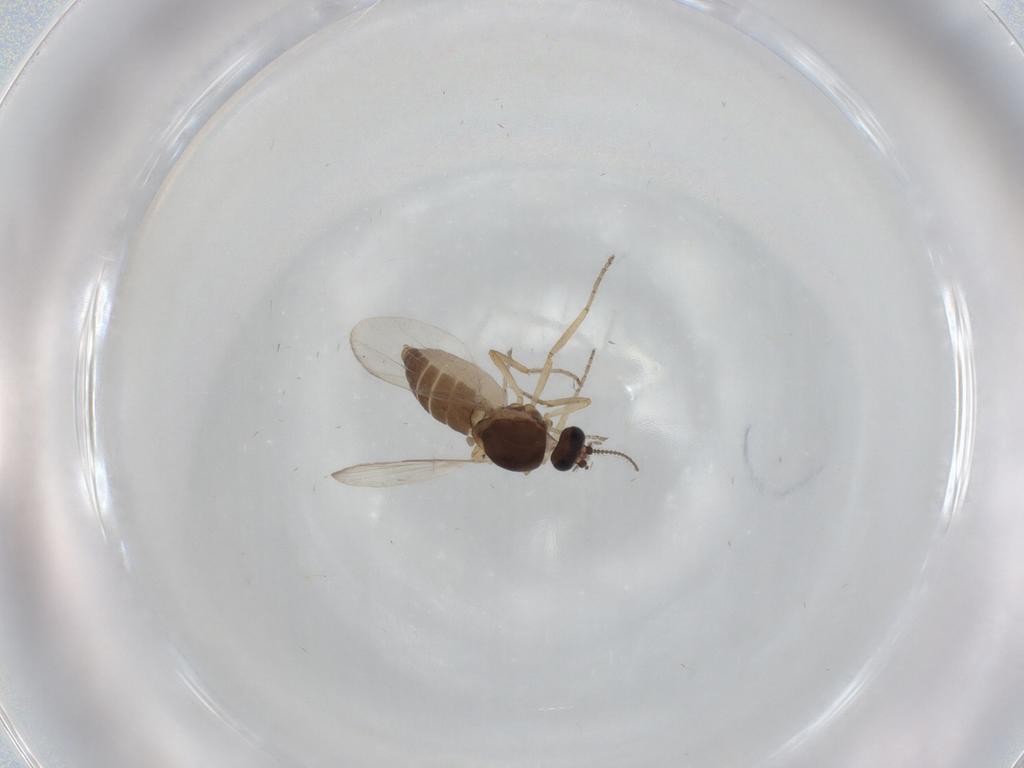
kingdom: Animalia
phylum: Arthropoda
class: Insecta
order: Diptera
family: Ceratopogonidae
